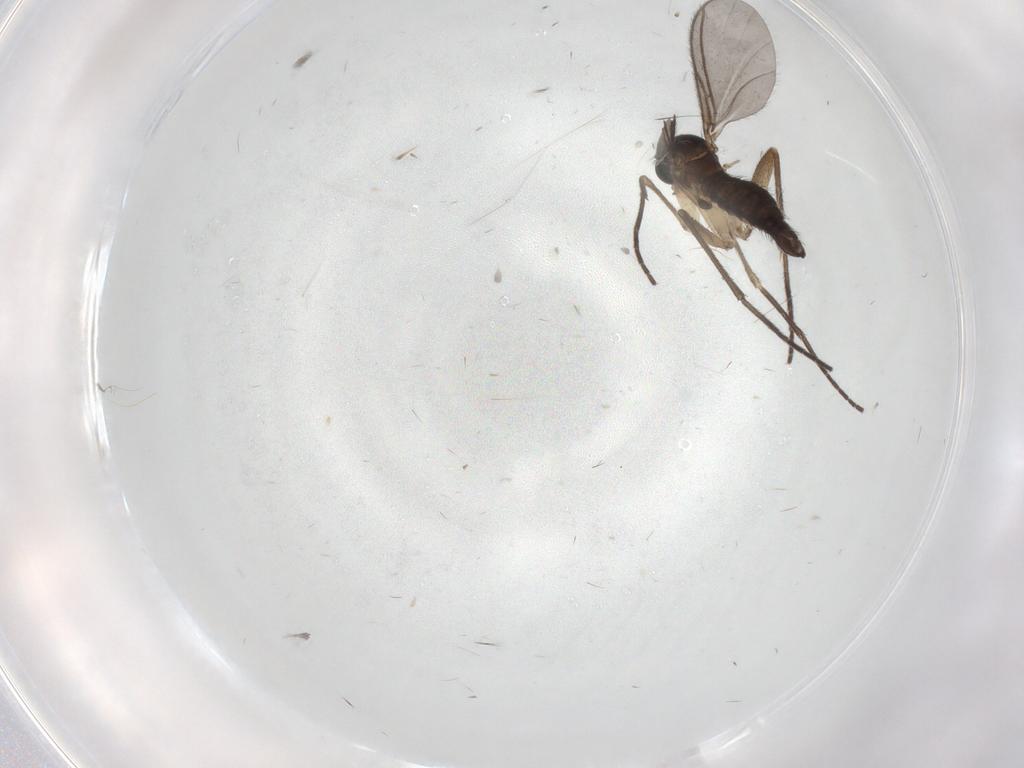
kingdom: Animalia
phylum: Arthropoda
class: Insecta
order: Diptera
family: Sciaridae
